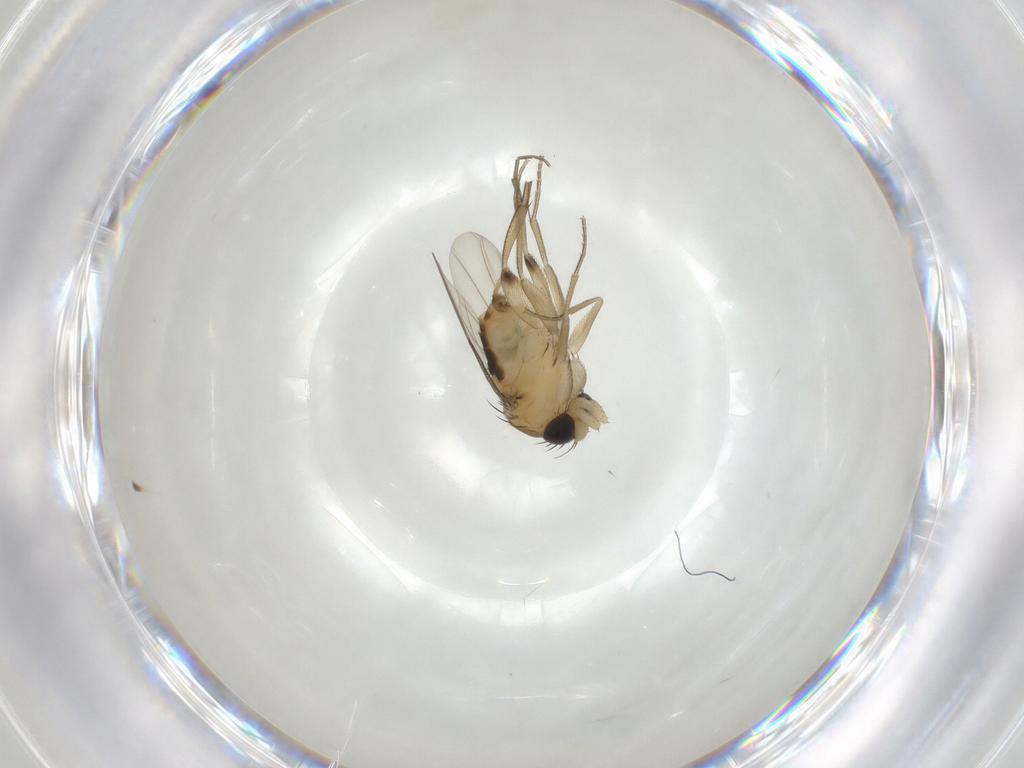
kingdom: Animalia
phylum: Arthropoda
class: Insecta
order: Diptera
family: Phoridae
